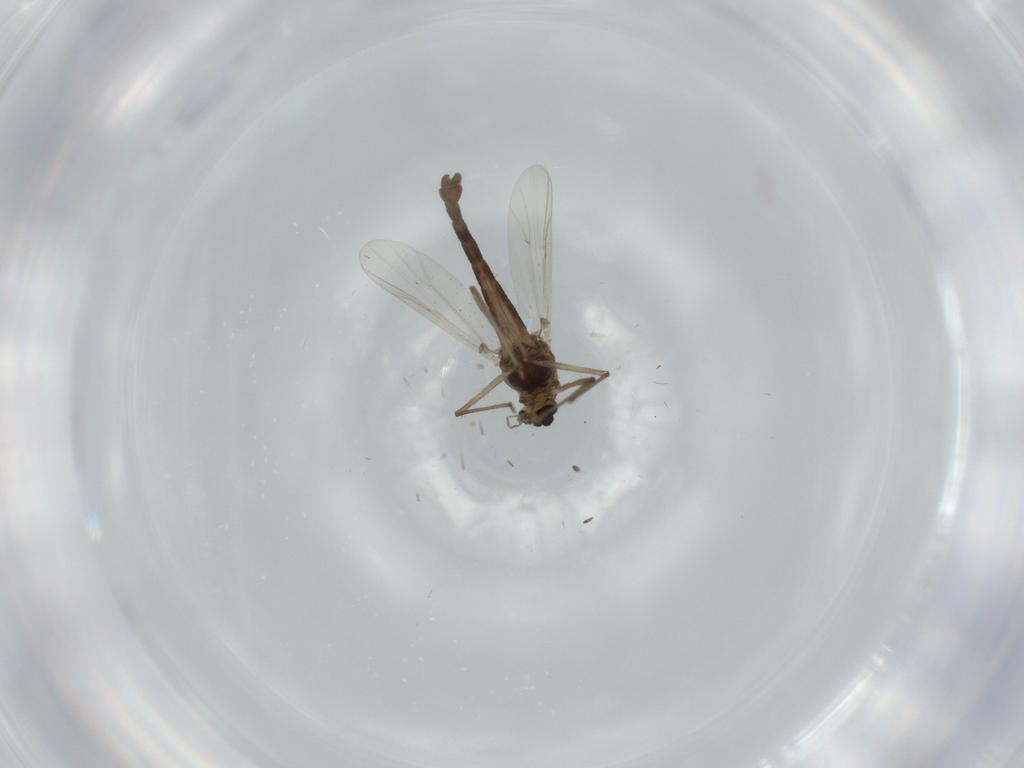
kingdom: Animalia
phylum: Arthropoda
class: Insecta
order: Diptera
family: Chironomidae
